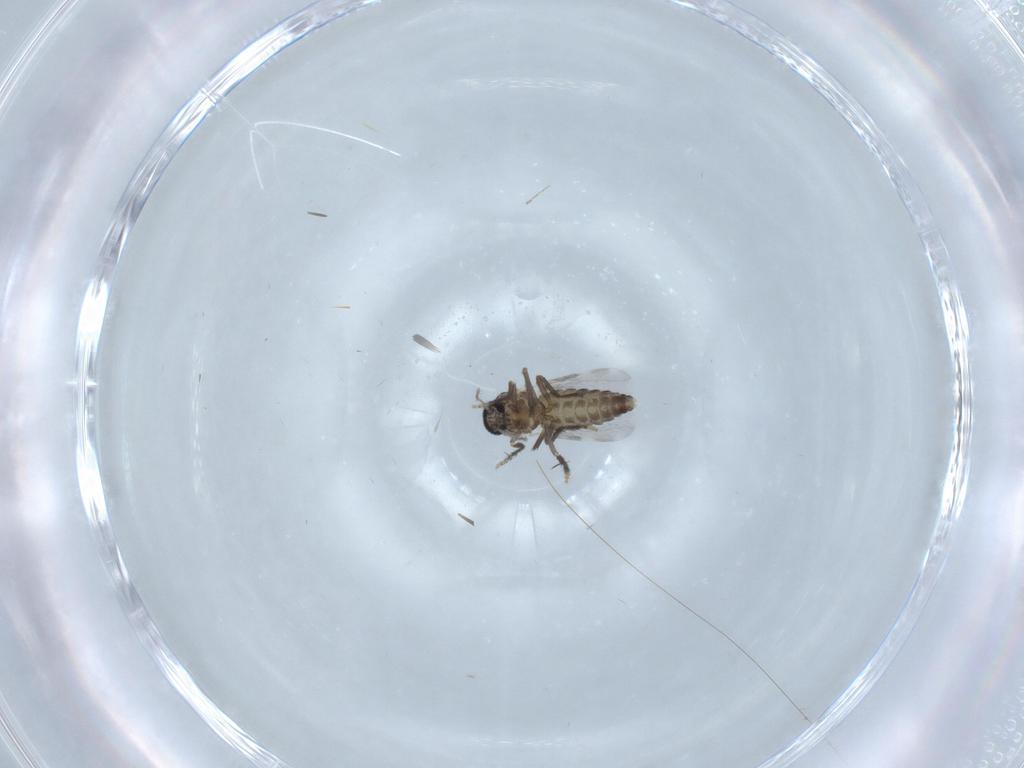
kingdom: Animalia
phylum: Arthropoda
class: Insecta
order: Diptera
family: Ceratopogonidae
